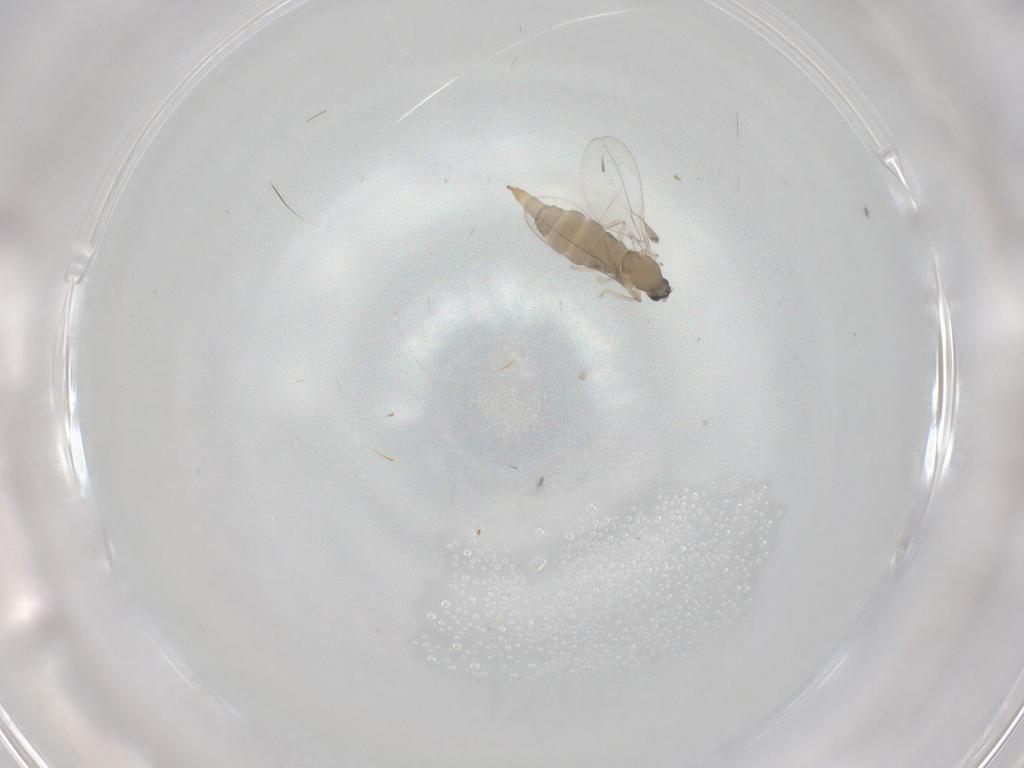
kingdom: Animalia
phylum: Arthropoda
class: Insecta
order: Diptera
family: Cecidomyiidae
